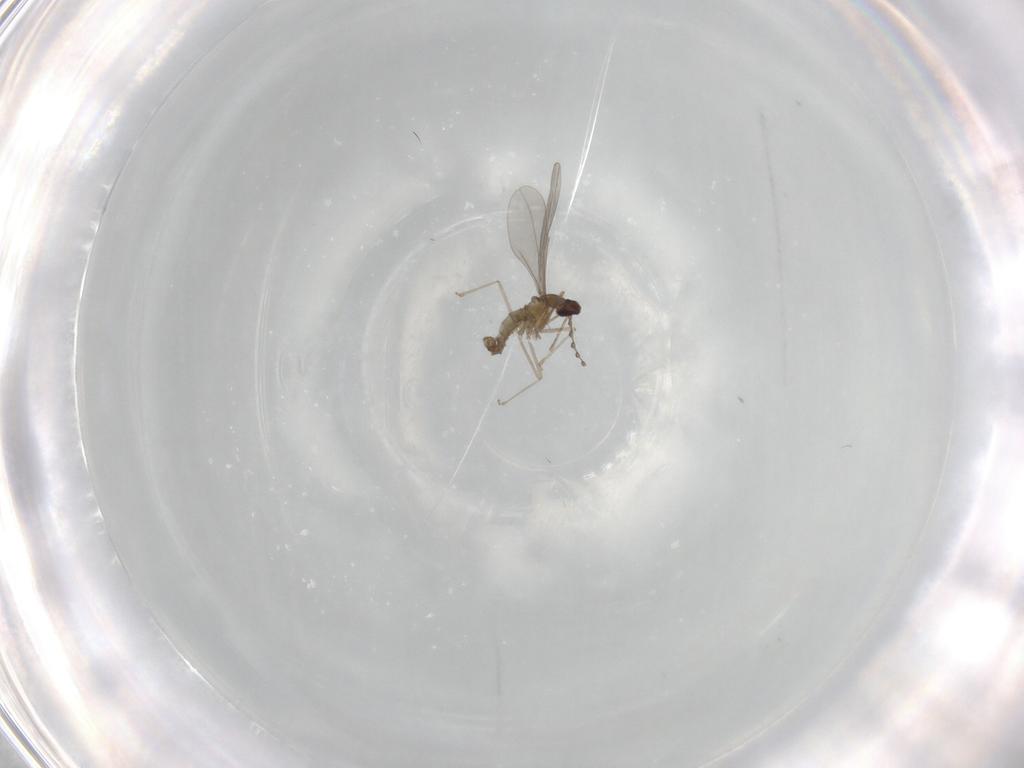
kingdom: Animalia
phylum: Arthropoda
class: Insecta
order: Diptera
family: Cecidomyiidae
